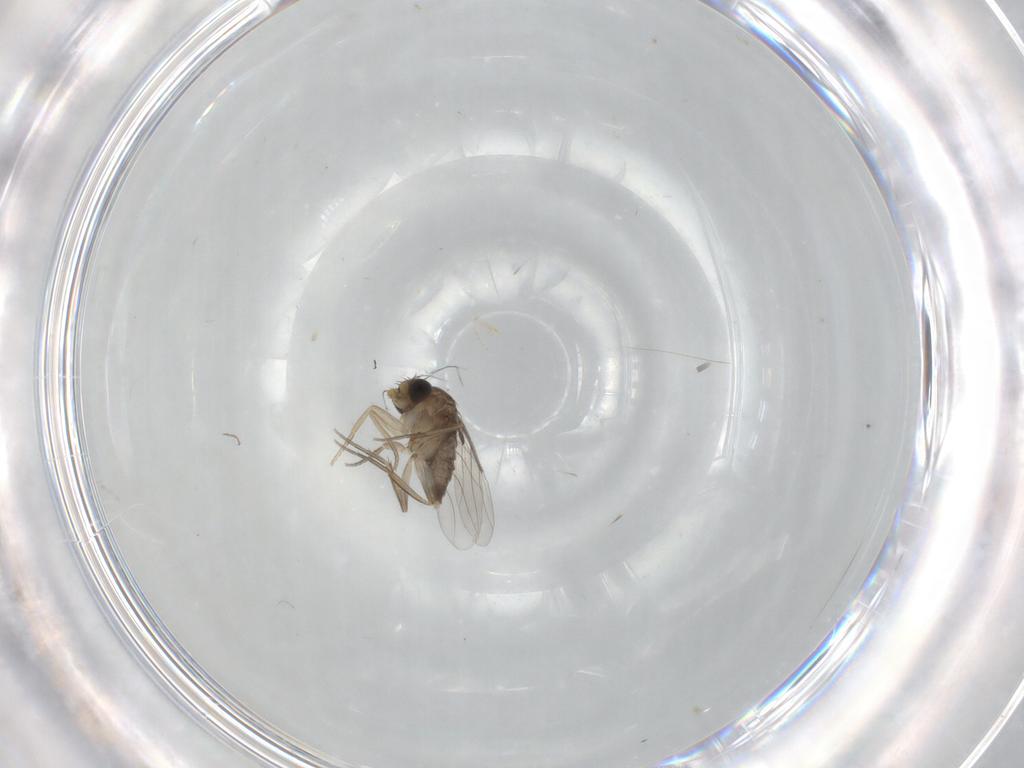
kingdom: Animalia
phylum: Arthropoda
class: Insecta
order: Diptera
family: Phoridae
